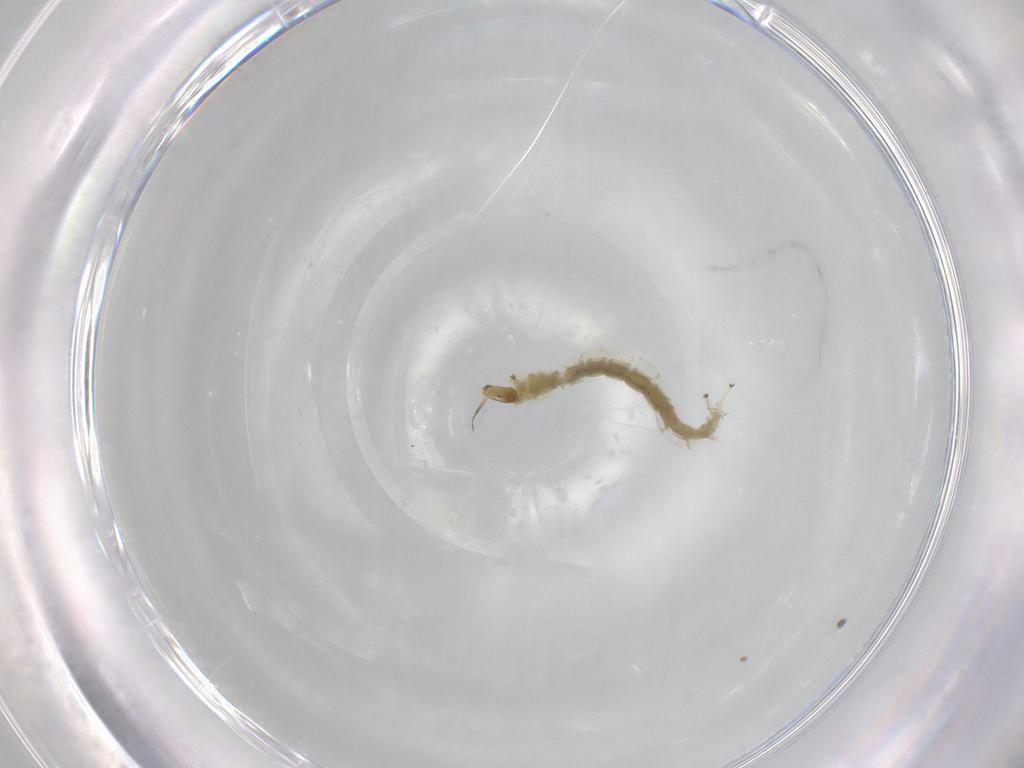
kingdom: Animalia
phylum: Arthropoda
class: Insecta
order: Diptera
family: Chironomidae
